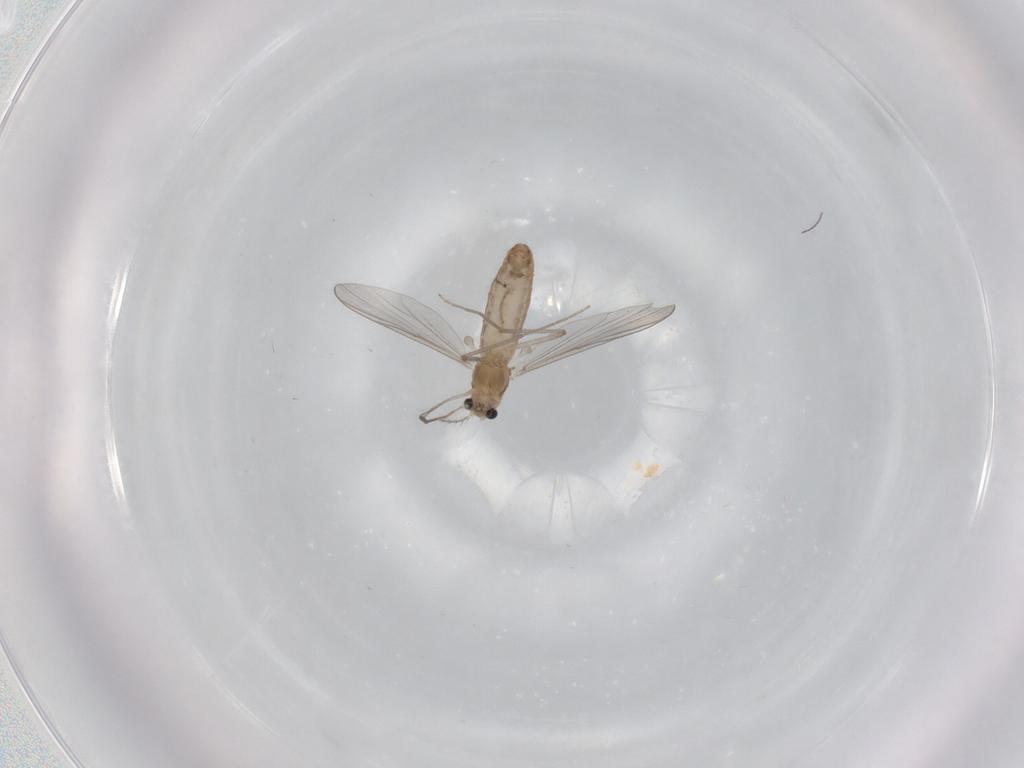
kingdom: Animalia
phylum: Arthropoda
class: Insecta
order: Diptera
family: Chironomidae
